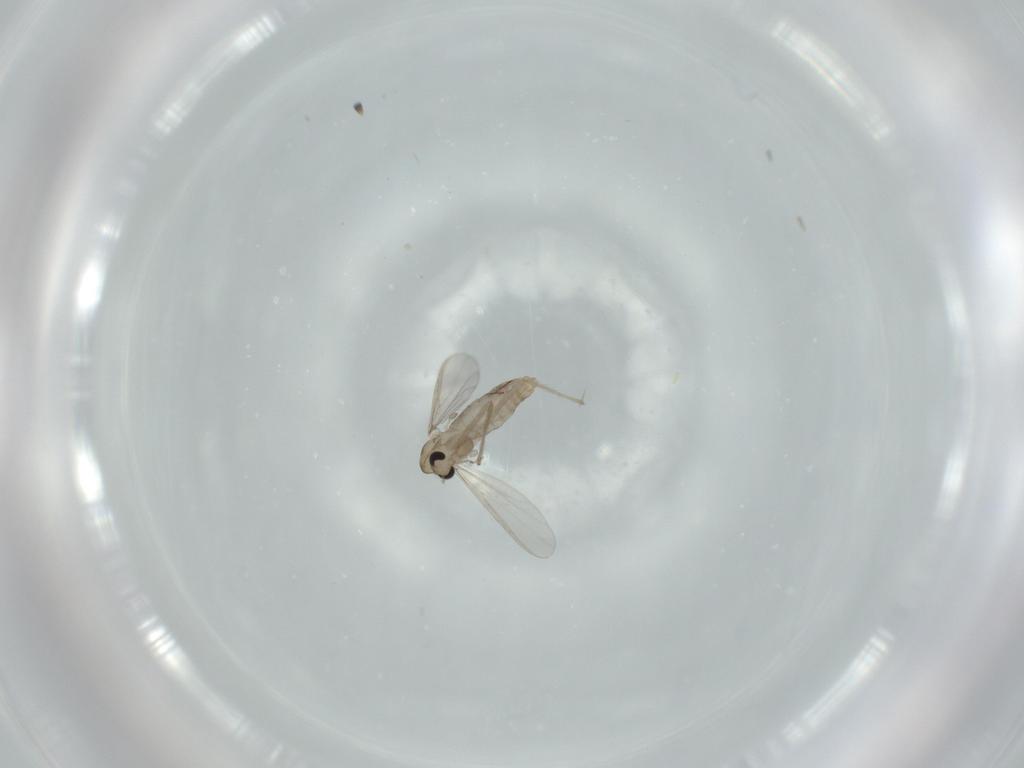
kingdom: Animalia
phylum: Arthropoda
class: Insecta
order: Diptera
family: Chironomidae
